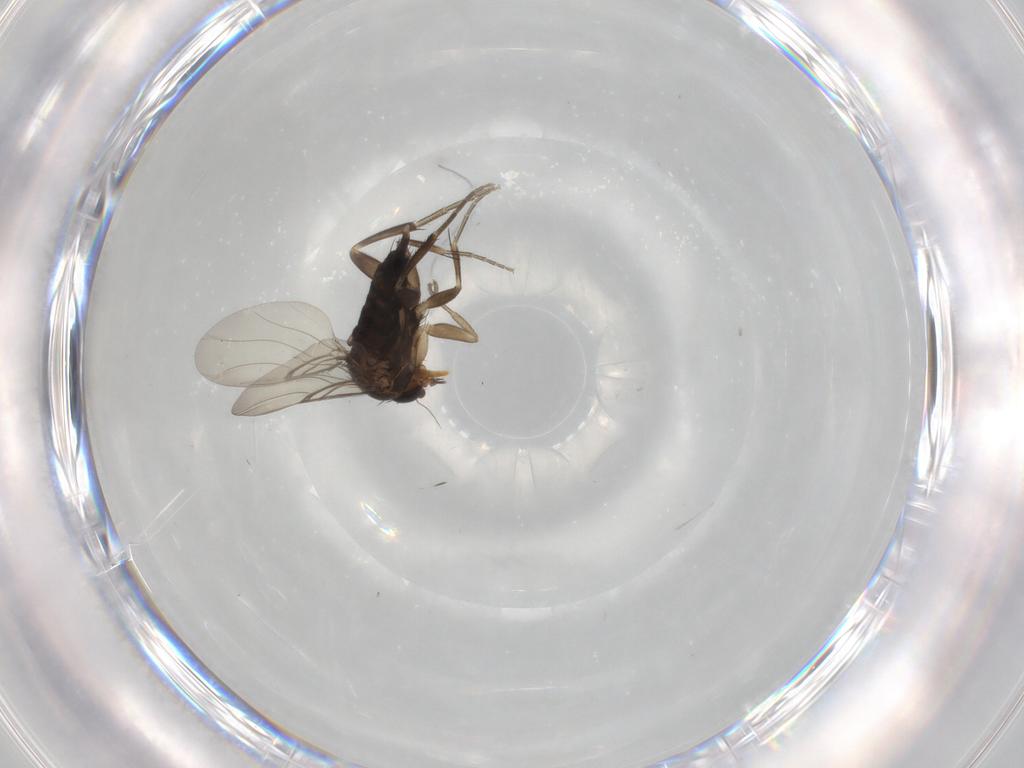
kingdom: Animalia
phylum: Arthropoda
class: Insecta
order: Diptera
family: Phoridae
